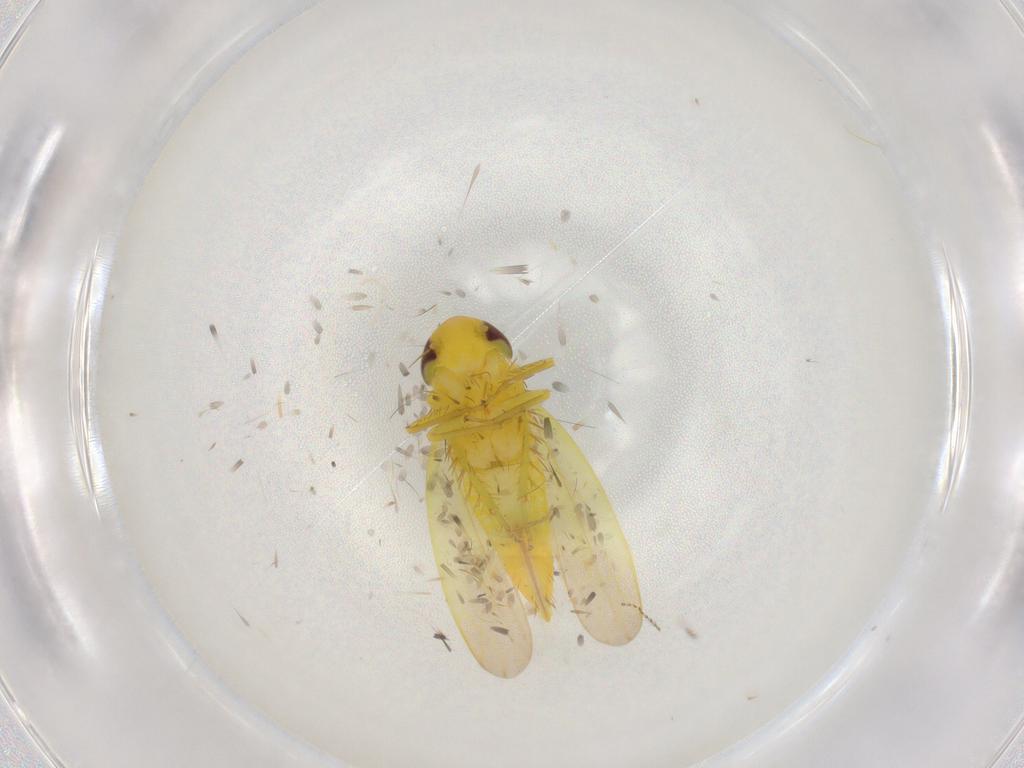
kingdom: Animalia
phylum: Arthropoda
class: Insecta
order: Hemiptera
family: Cicadellidae
